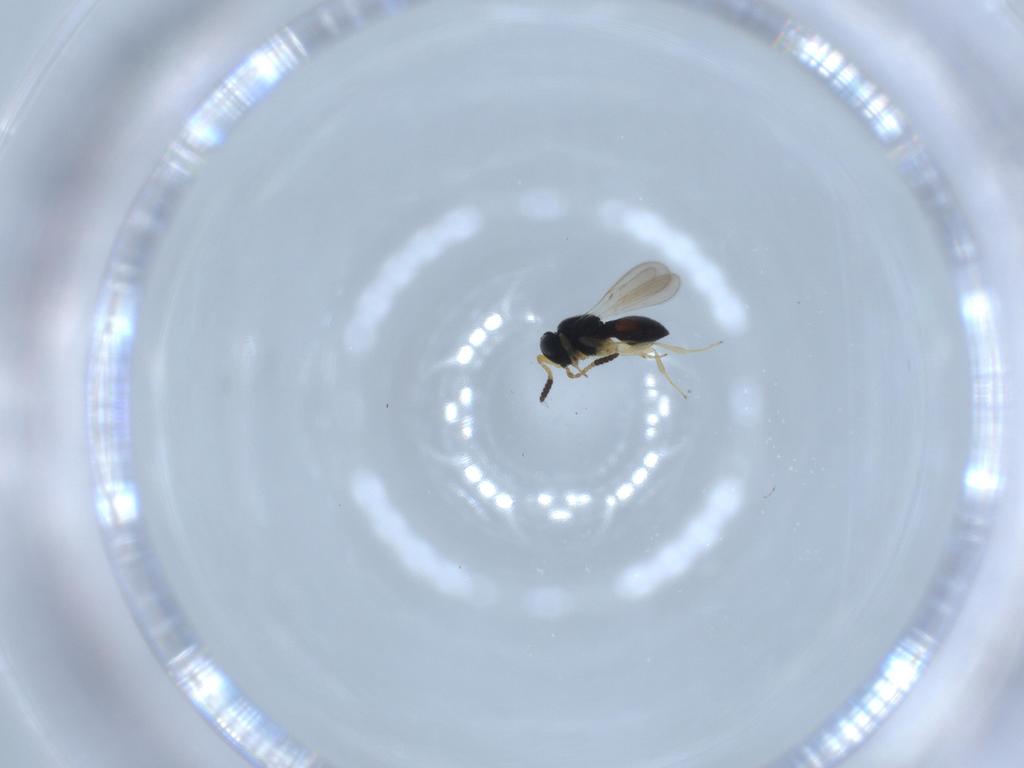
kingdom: Animalia
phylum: Arthropoda
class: Insecta
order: Hymenoptera
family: Scelionidae
